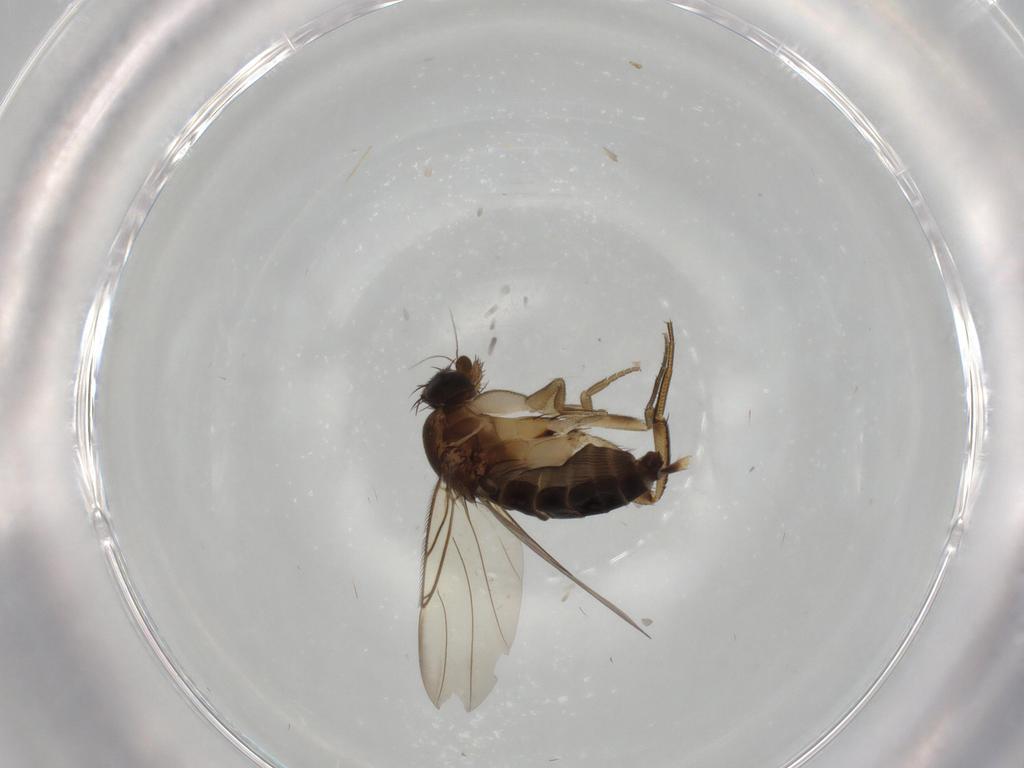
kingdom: Animalia
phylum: Arthropoda
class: Insecta
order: Diptera
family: Phoridae
